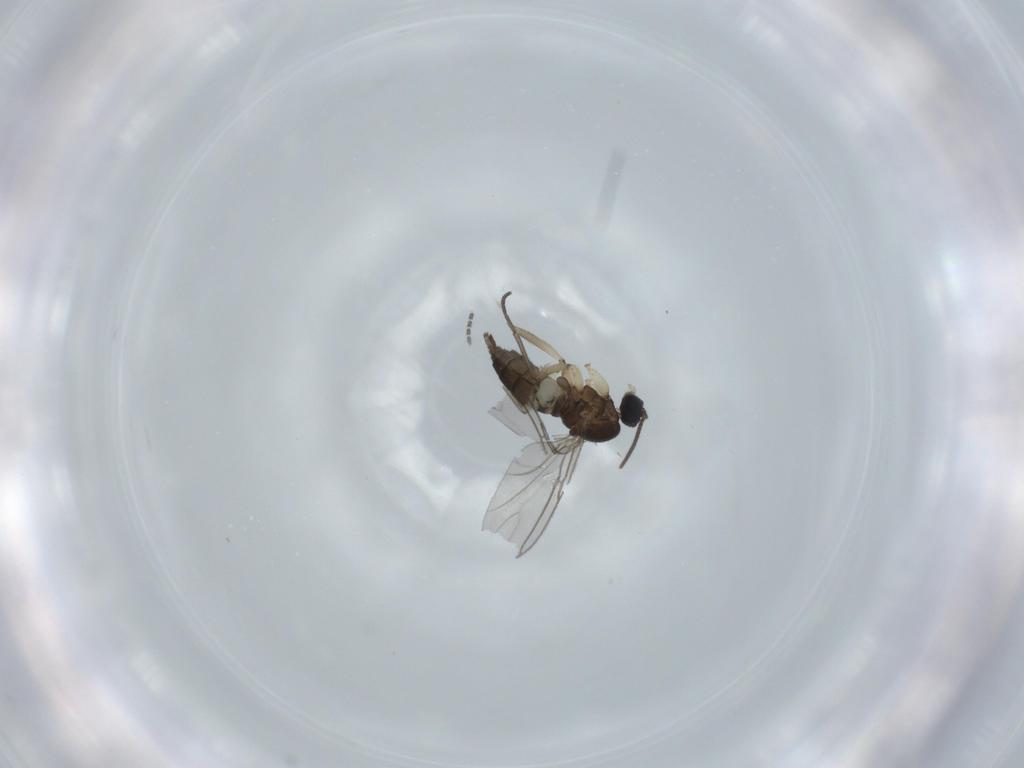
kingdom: Animalia
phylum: Arthropoda
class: Insecta
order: Diptera
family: Sciaridae
